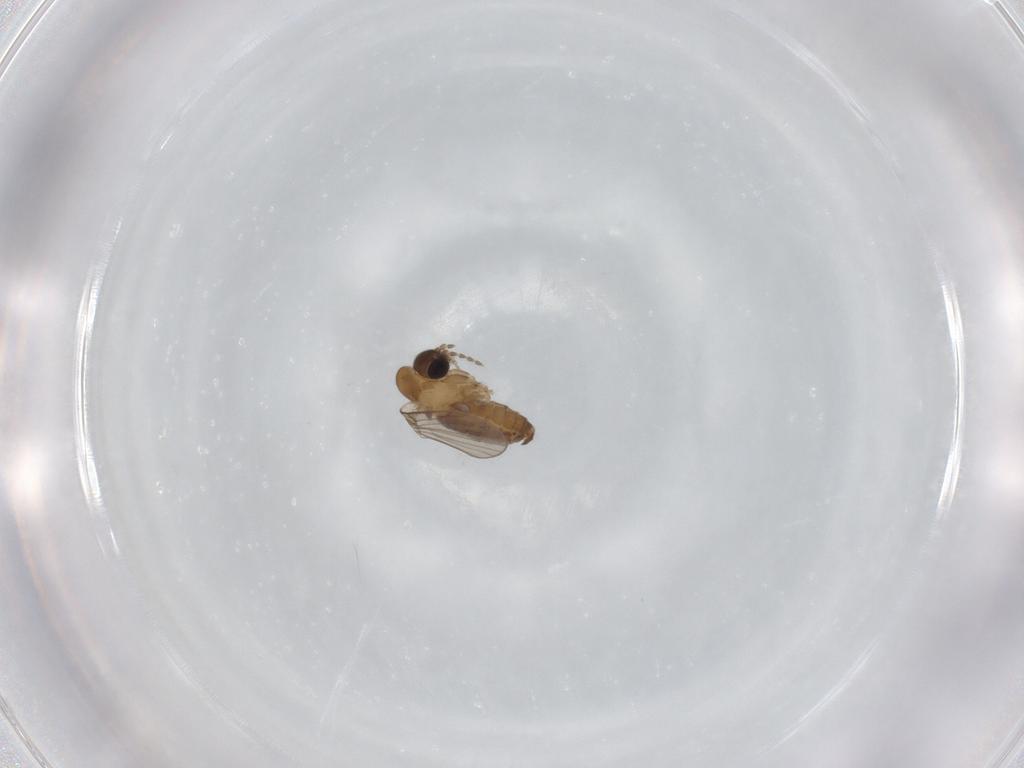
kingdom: Animalia
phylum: Arthropoda
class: Insecta
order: Diptera
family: Psychodidae
